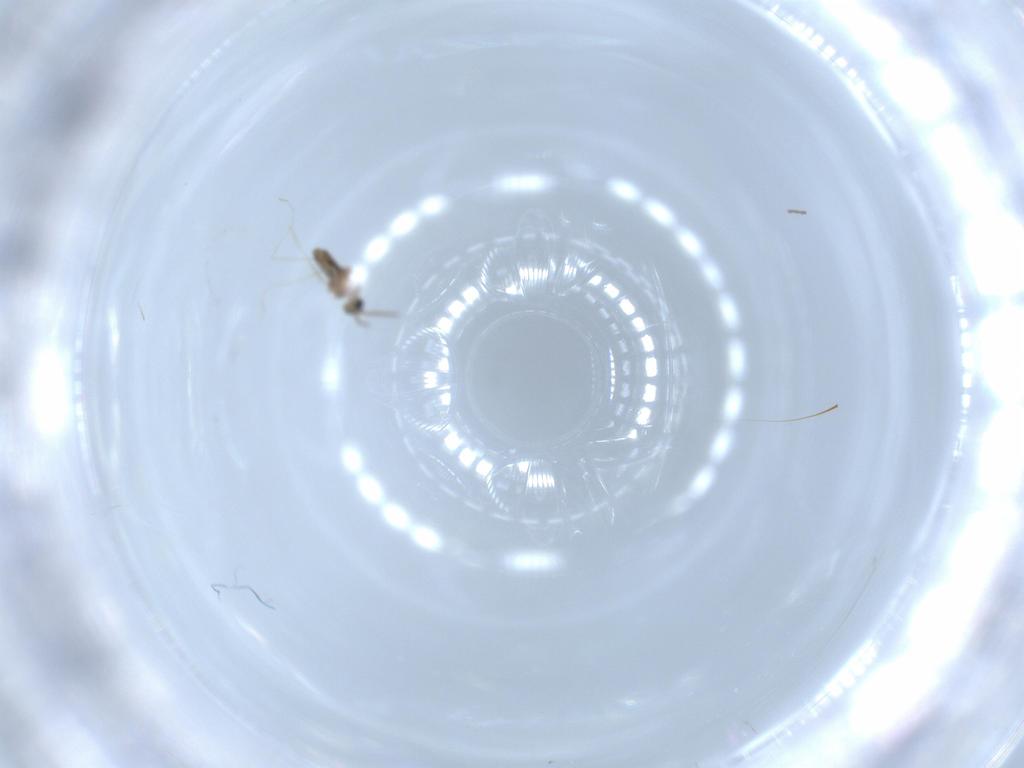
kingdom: Animalia
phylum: Arthropoda
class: Insecta
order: Diptera
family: Cecidomyiidae
